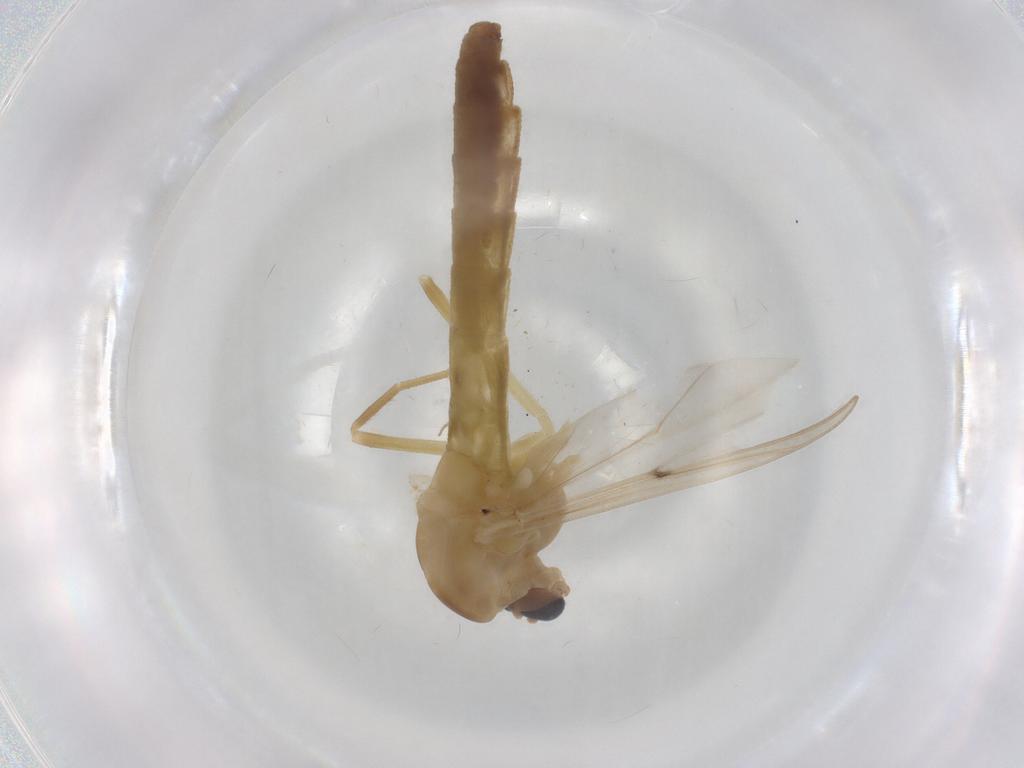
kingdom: Animalia
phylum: Arthropoda
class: Insecta
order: Diptera
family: Chironomidae
